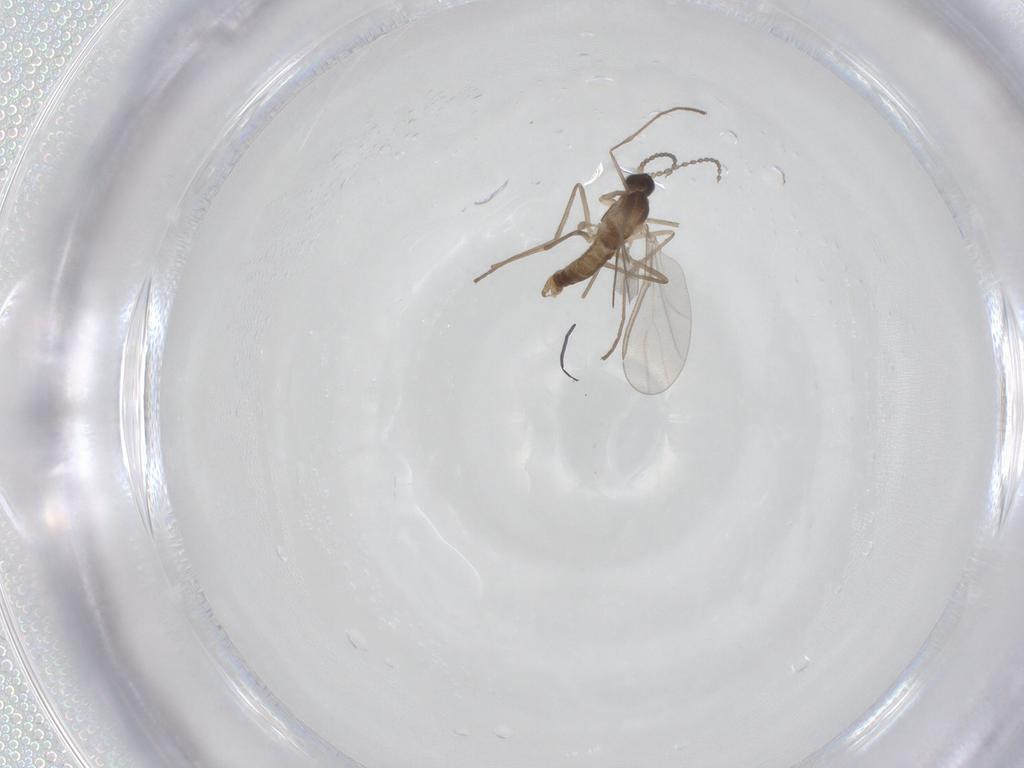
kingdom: Animalia
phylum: Arthropoda
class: Insecta
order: Diptera
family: Cecidomyiidae
